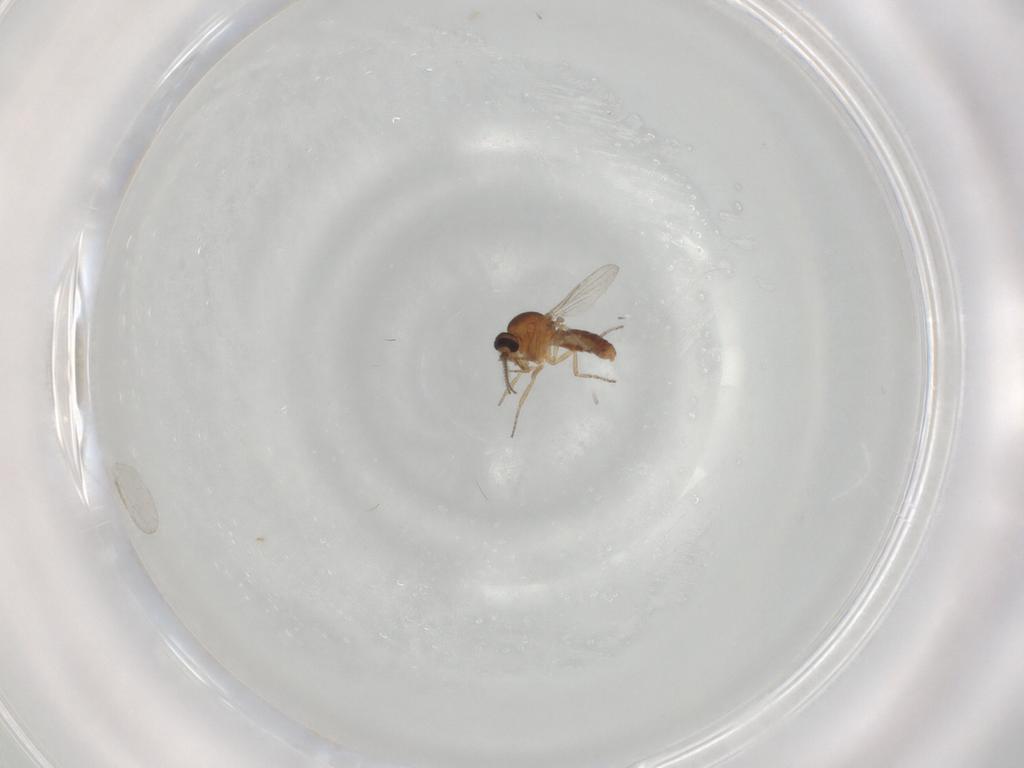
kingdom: Animalia
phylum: Arthropoda
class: Insecta
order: Diptera
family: Ceratopogonidae
